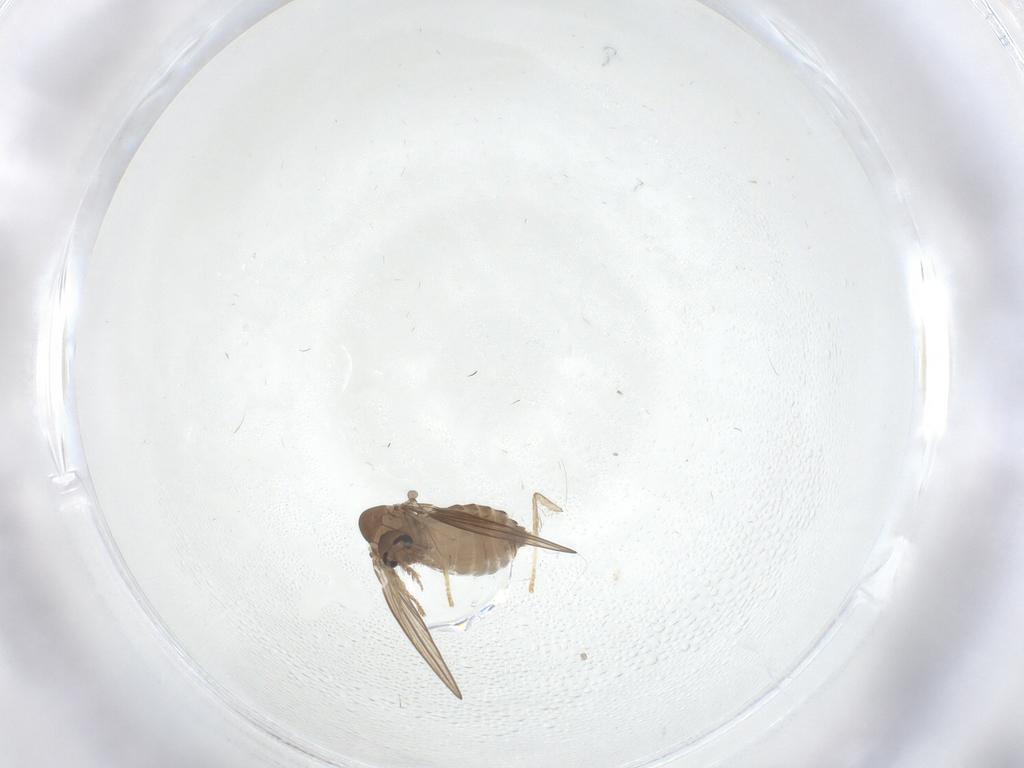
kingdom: Animalia
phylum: Arthropoda
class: Insecta
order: Diptera
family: Psychodidae
